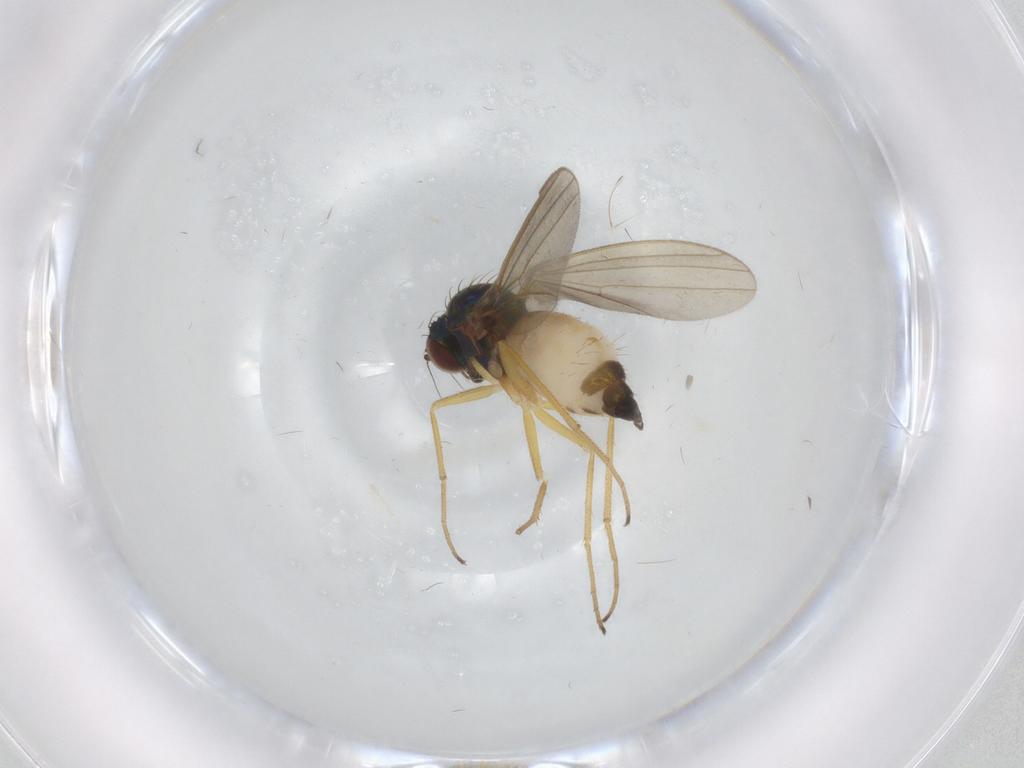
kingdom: Animalia
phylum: Arthropoda
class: Insecta
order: Diptera
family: Dolichopodidae
